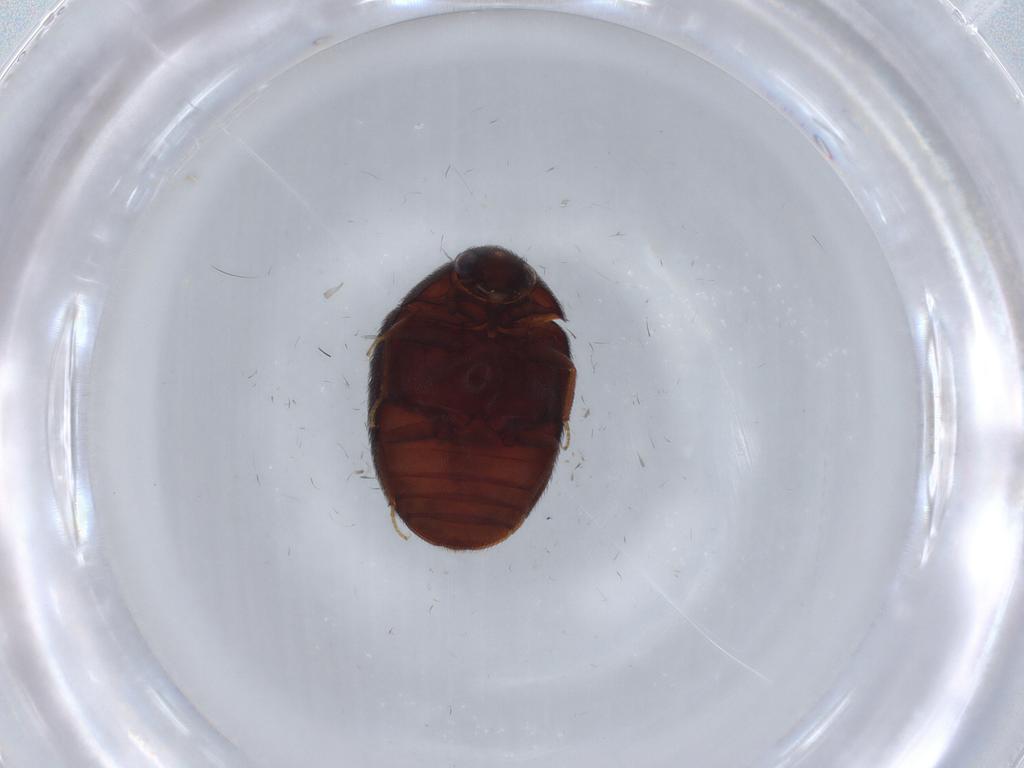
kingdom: Animalia
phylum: Arthropoda
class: Insecta
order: Coleoptera
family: Dermestidae
